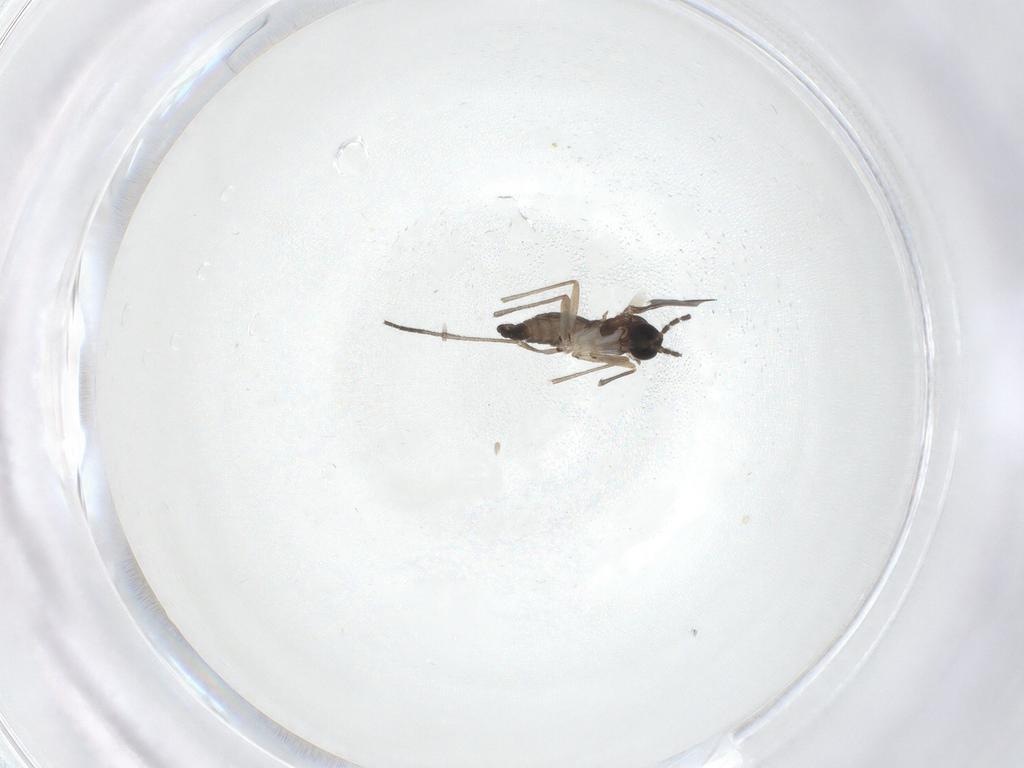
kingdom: Animalia
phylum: Arthropoda
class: Insecta
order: Diptera
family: Chironomidae
